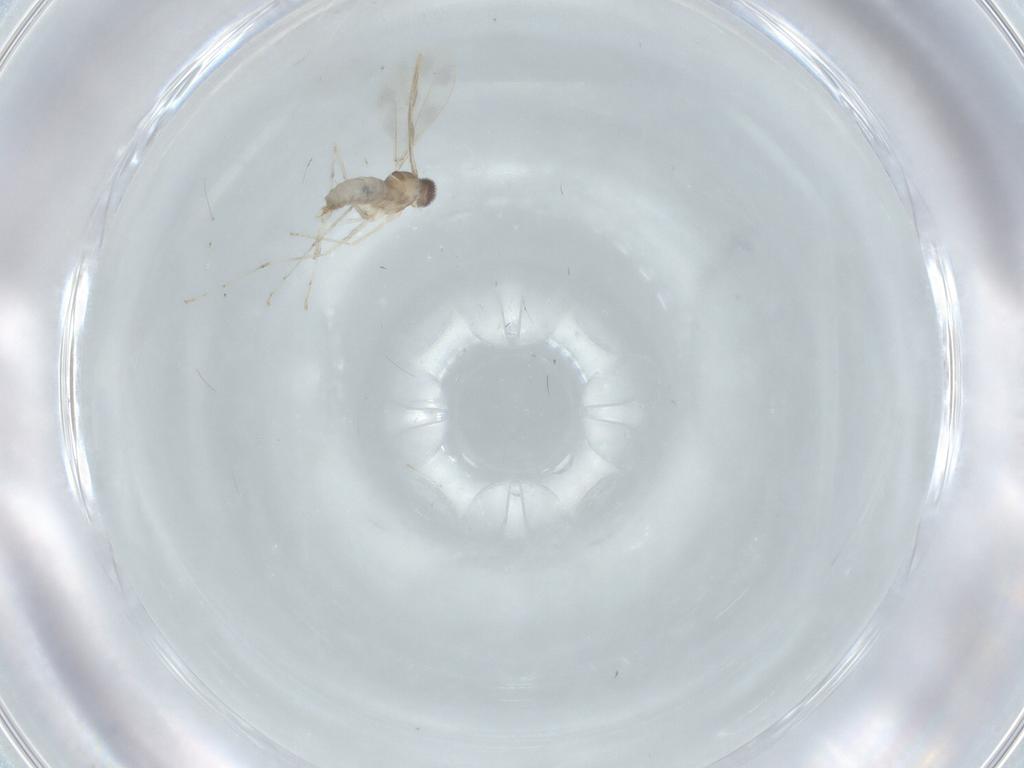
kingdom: Animalia
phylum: Arthropoda
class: Insecta
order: Diptera
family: Cecidomyiidae
